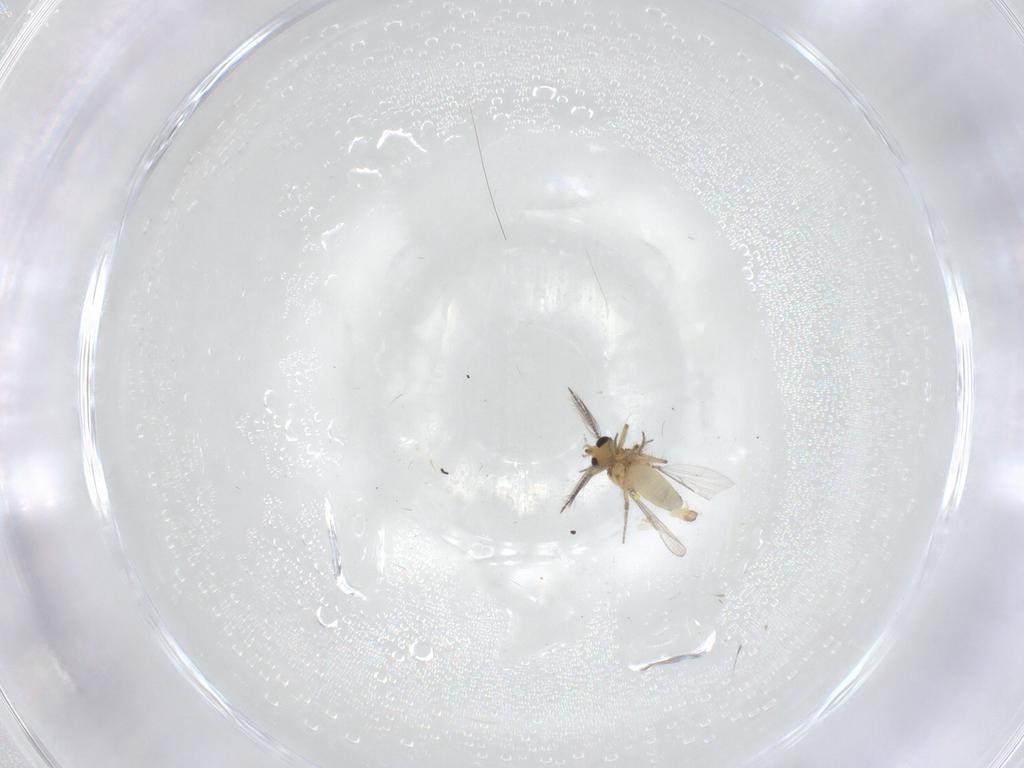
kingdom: Animalia
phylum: Arthropoda
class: Insecta
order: Diptera
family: Ceratopogonidae
